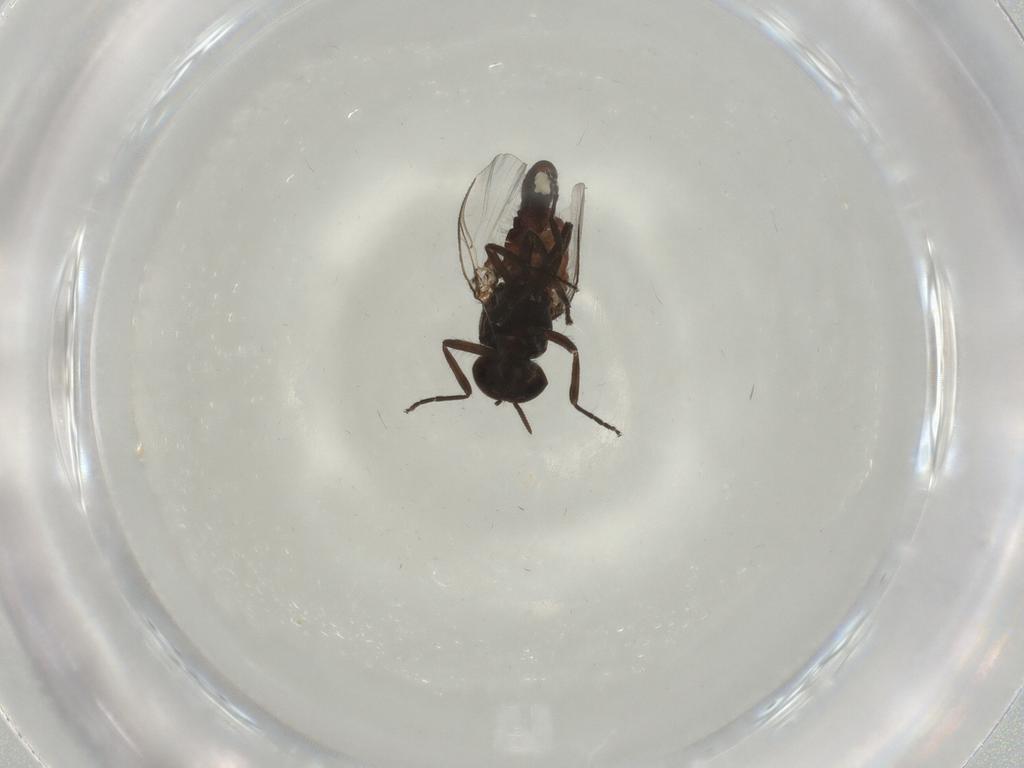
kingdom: Animalia
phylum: Arthropoda
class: Insecta
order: Diptera
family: Simuliidae
